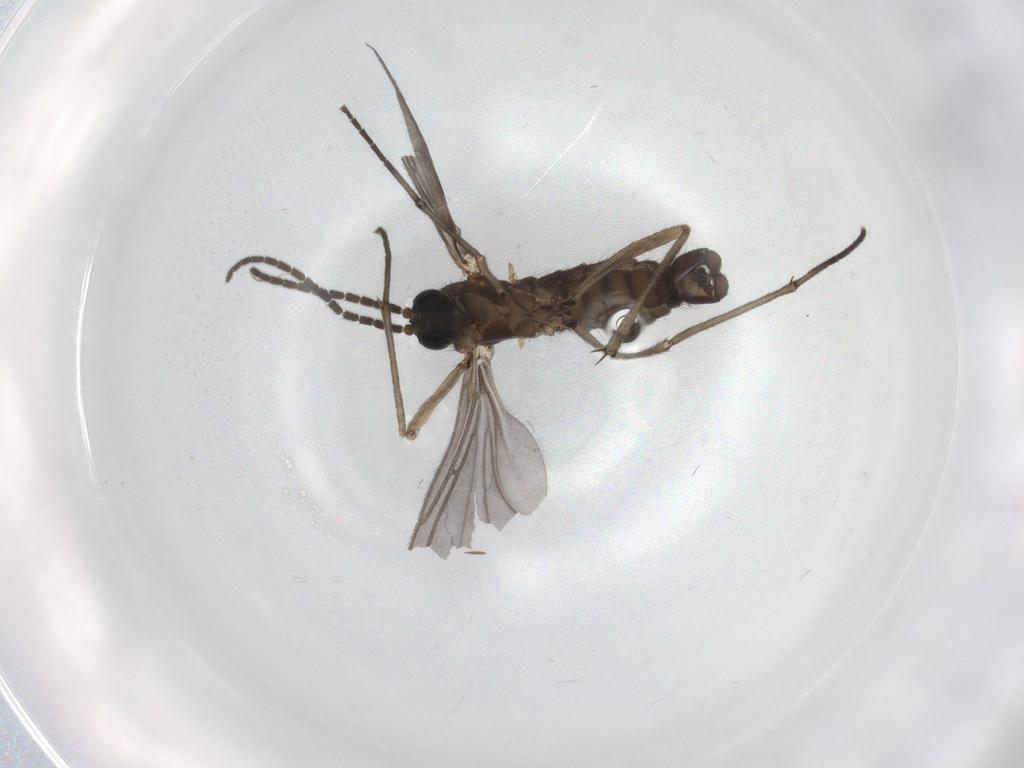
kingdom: Animalia
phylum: Arthropoda
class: Insecta
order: Diptera
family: Sciaridae
